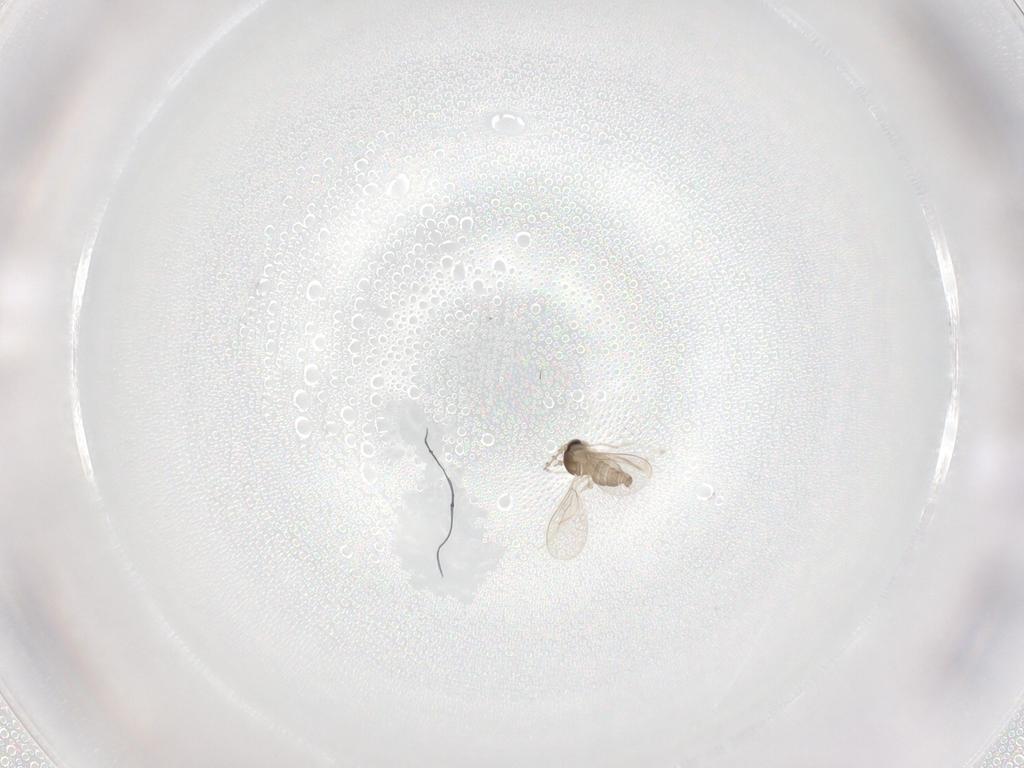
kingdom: Animalia
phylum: Arthropoda
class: Insecta
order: Diptera
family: Cecidomyiidae
